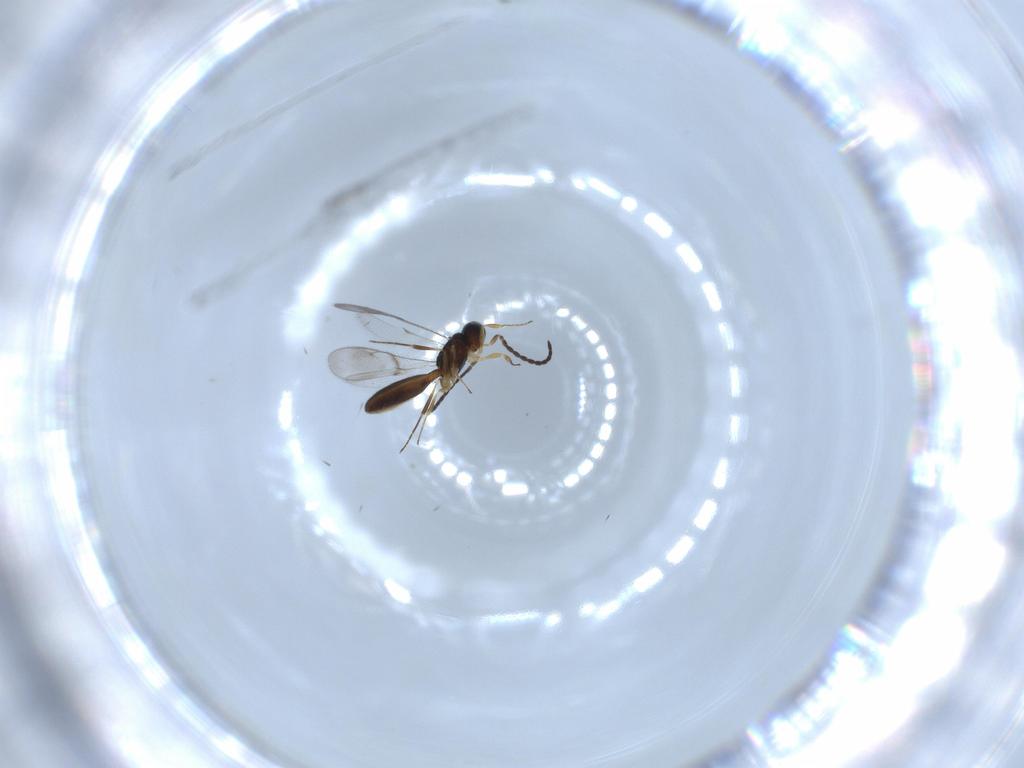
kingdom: Animalia
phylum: Arthropoda
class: Insecta
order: Hymenoptera
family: Scelionidae
